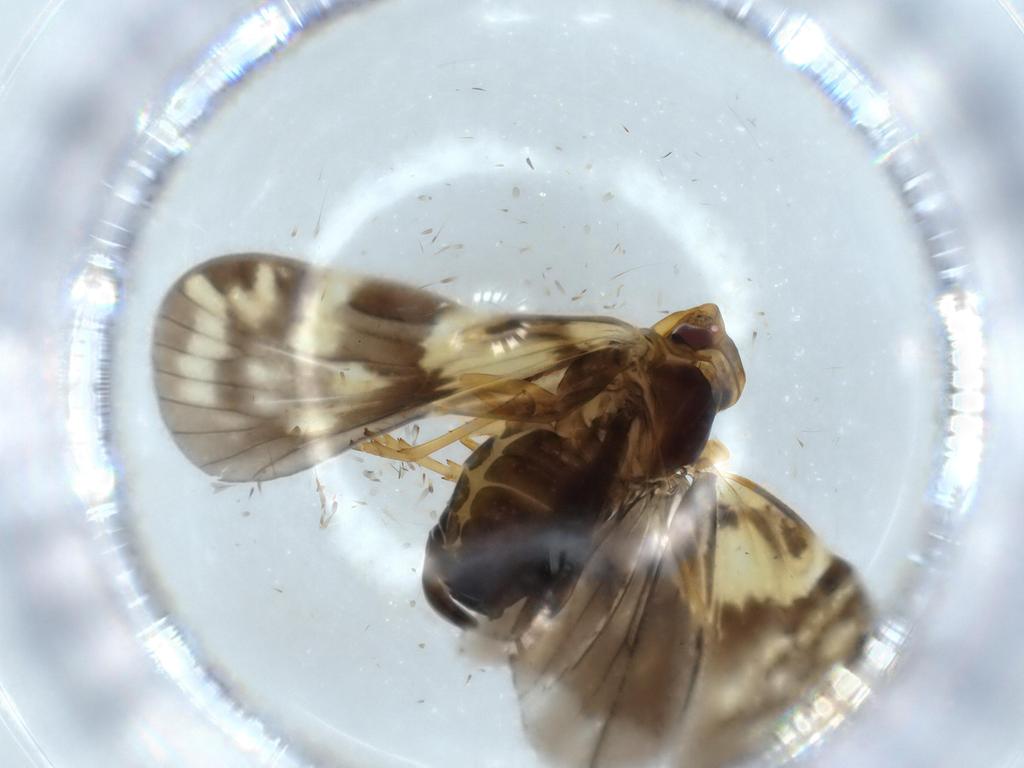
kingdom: Animalia
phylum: Arthropoda
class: Insecta
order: Hemiptera
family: Cixiidae
